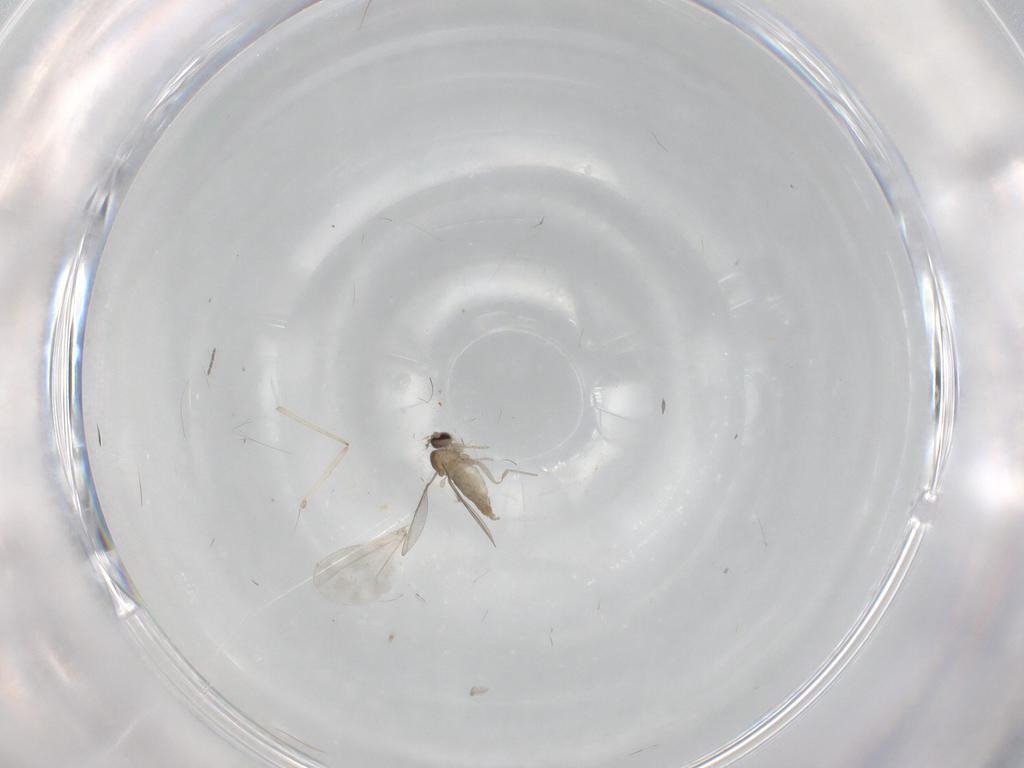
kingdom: Animalia
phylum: Arthropoda
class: Insecta
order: Diptera
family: Cecidomyiidae
